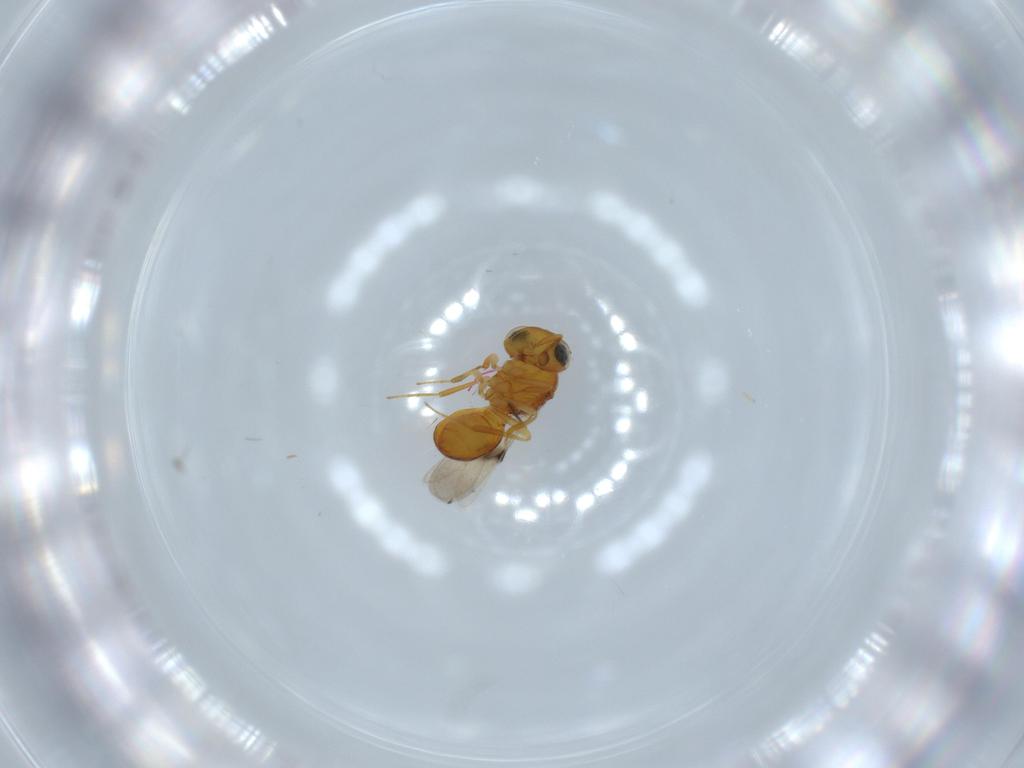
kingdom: Animalia
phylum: Arthropoda
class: Insecta
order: Hymenoptera
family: Scelionidae
